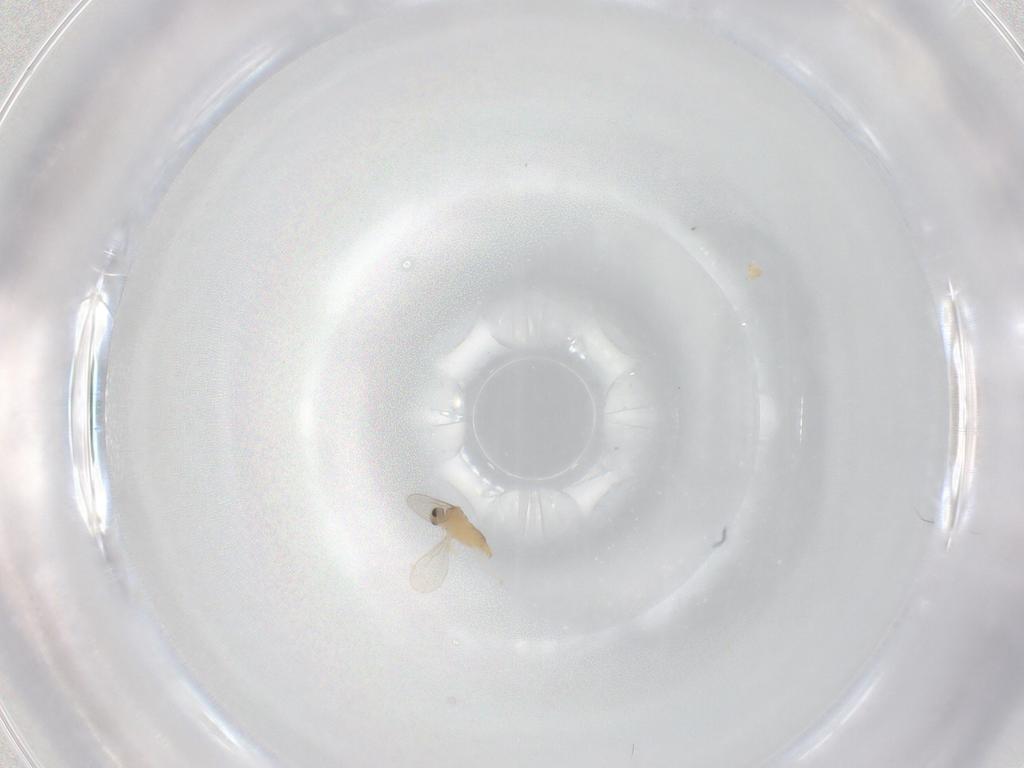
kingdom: Animalia
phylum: Arthropoda
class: Insecta
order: Diptera
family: Cecidomyiidae
